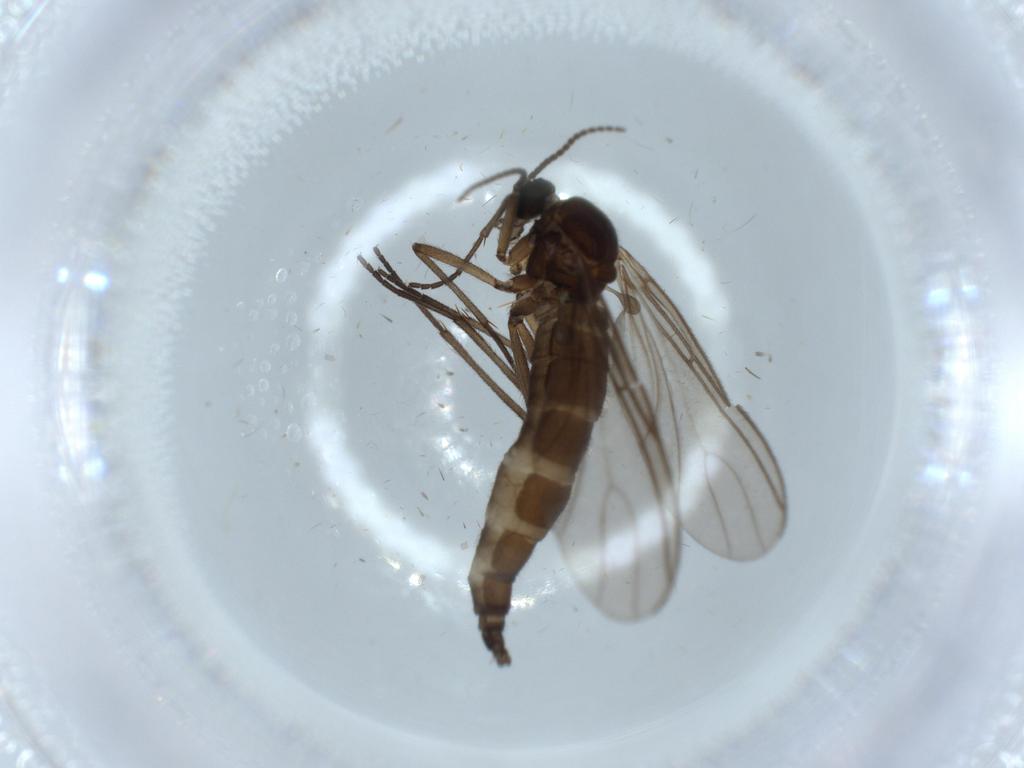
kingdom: Animalia
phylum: Arthropoda
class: Insecta
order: Diptera
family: Sciaridae
